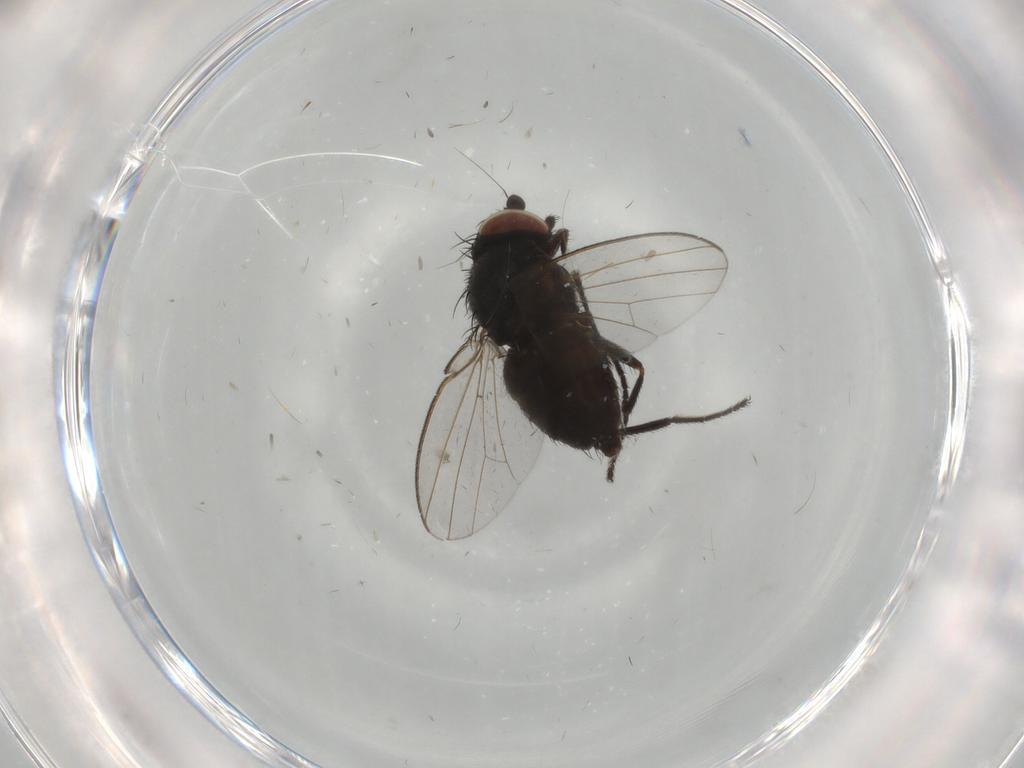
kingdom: Animalia
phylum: Arthropoda
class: Insecta
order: Diptera
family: Milichiidae
